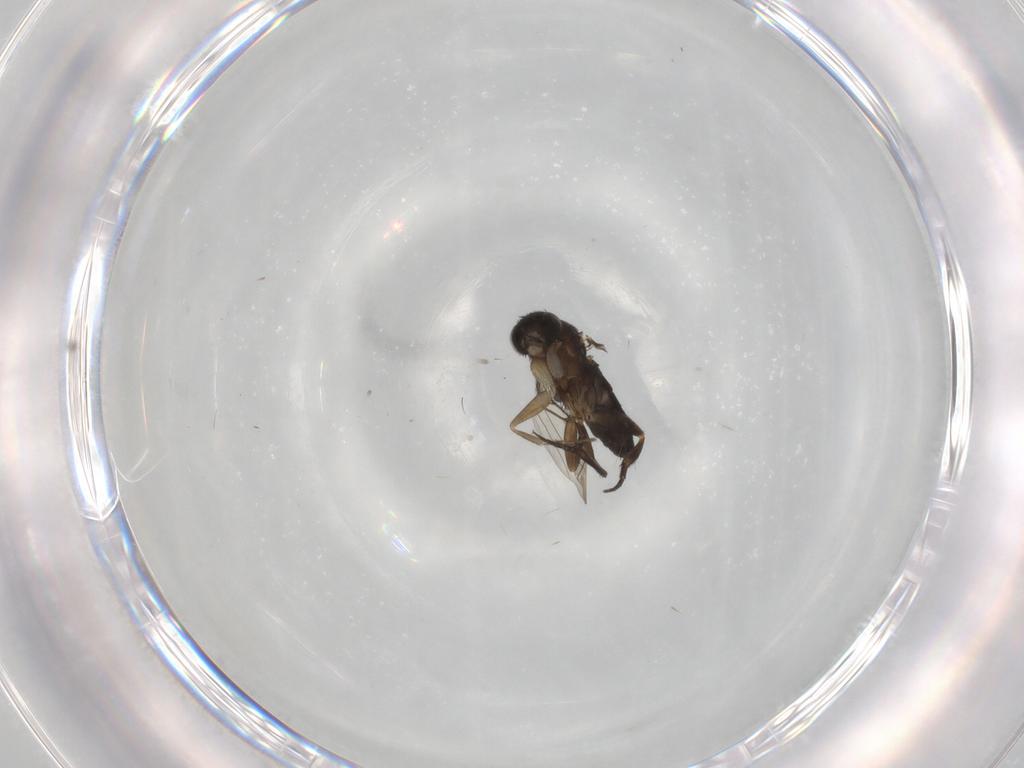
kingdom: Animalia
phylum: Arthropoda
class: Insecta
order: Diptera
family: Phoridae
